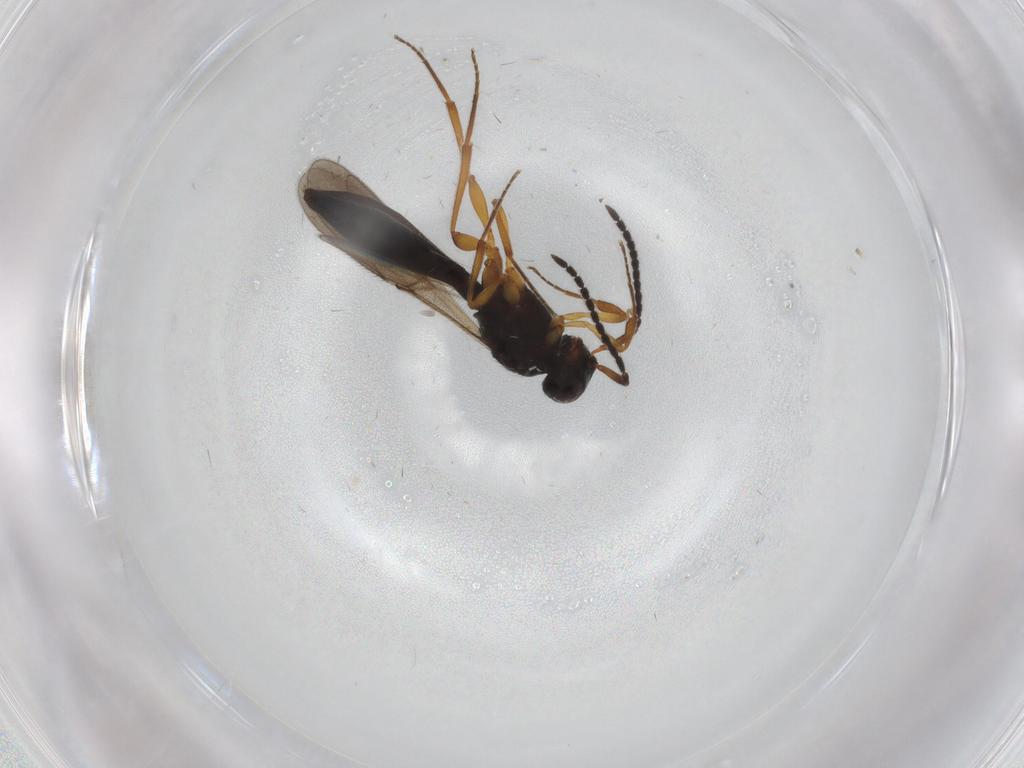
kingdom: Animalia
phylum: Arthropoda
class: Insecta
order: Hymenoptera
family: Scelionidae
